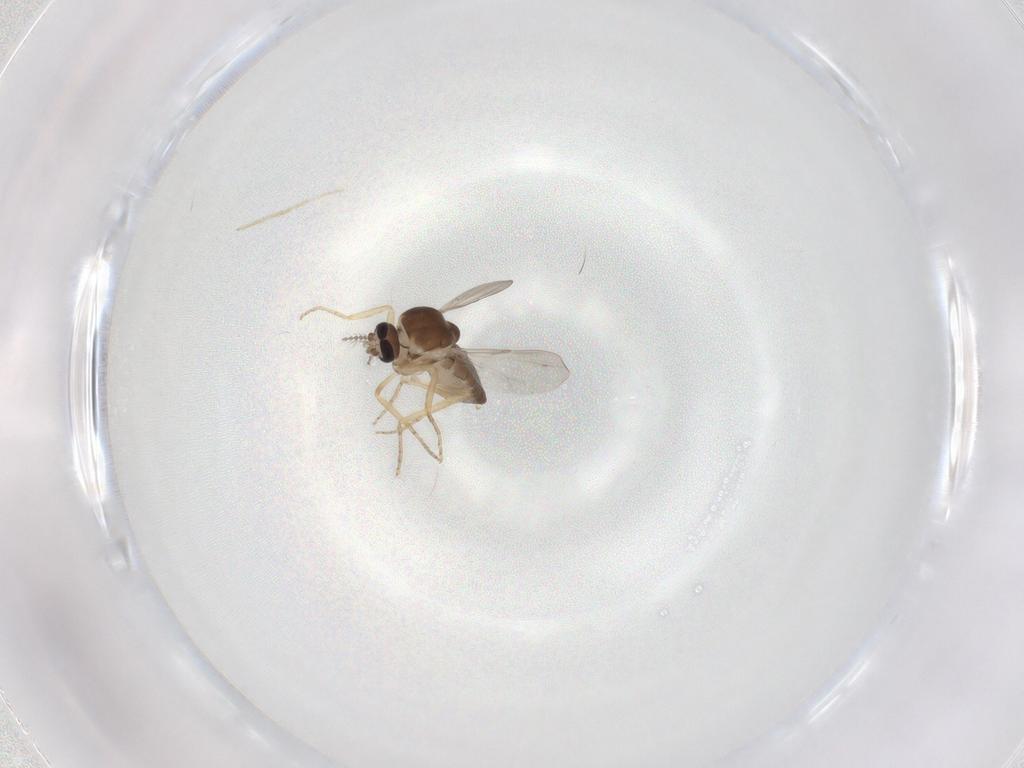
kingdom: Animalia
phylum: Arthropoda
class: Insecta
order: Diptera
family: Ceratopogonidae
